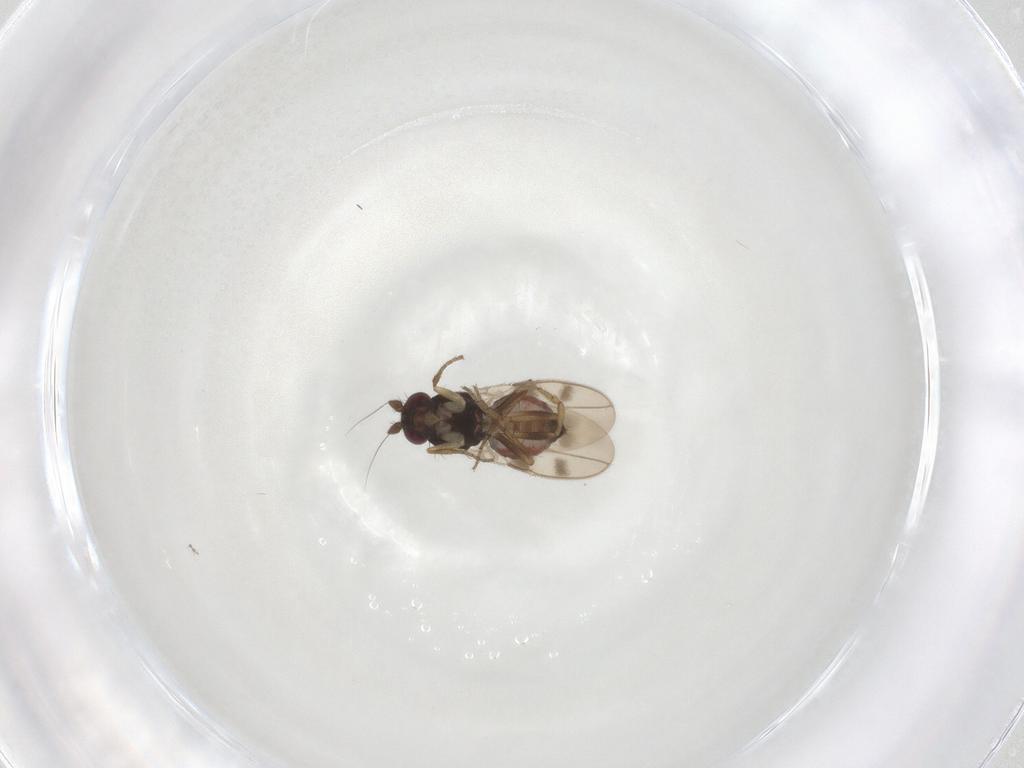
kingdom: Animalia
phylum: Arthropoda
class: Insecta
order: Diptera
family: Sphaeroceridae
